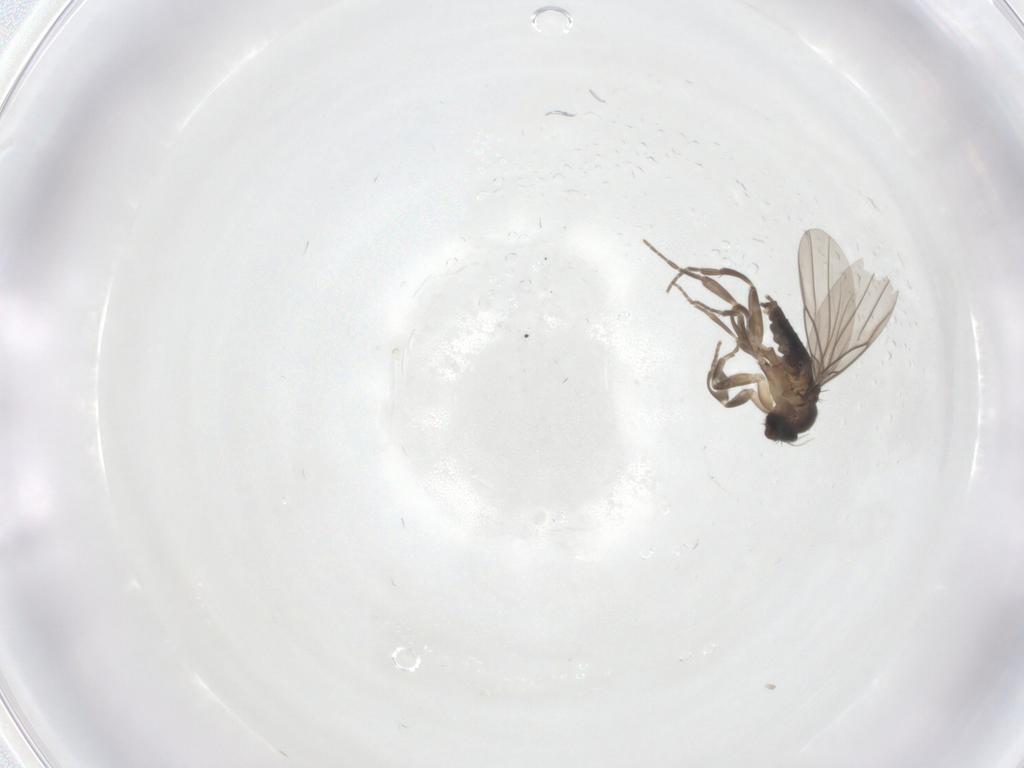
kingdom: Animalia
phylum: Arthropoda
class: Insecta
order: Diptera
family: Phoridae
